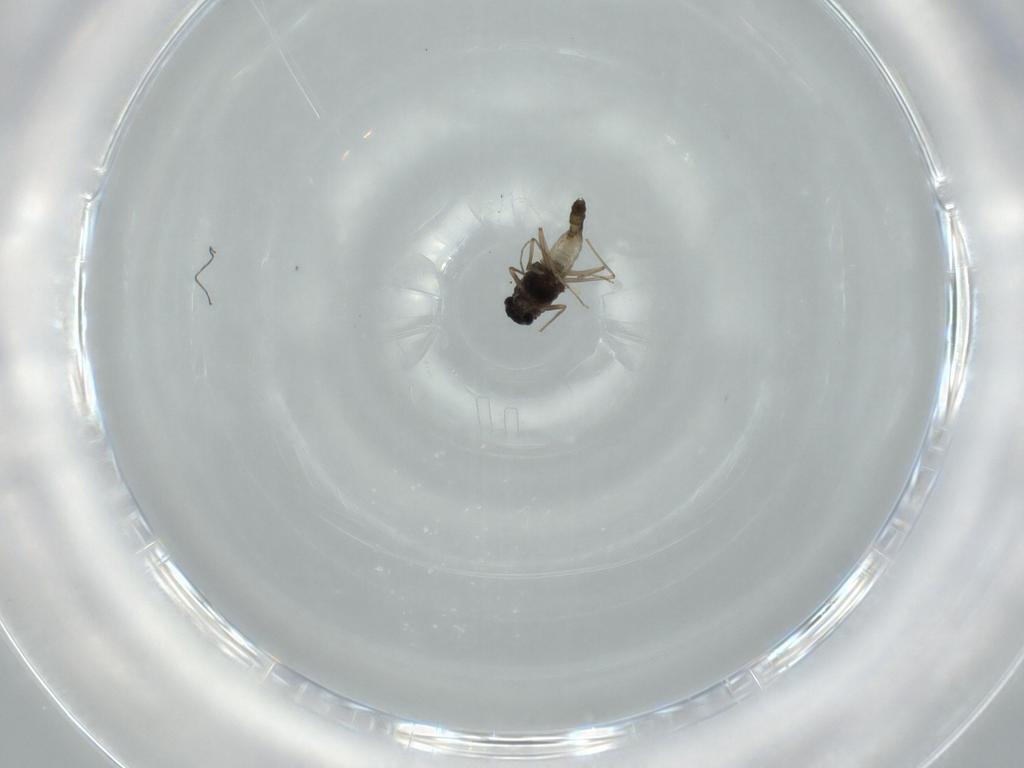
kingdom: Animalia
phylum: Arthropoda
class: Insecta
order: Diptera
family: Chironomidae
